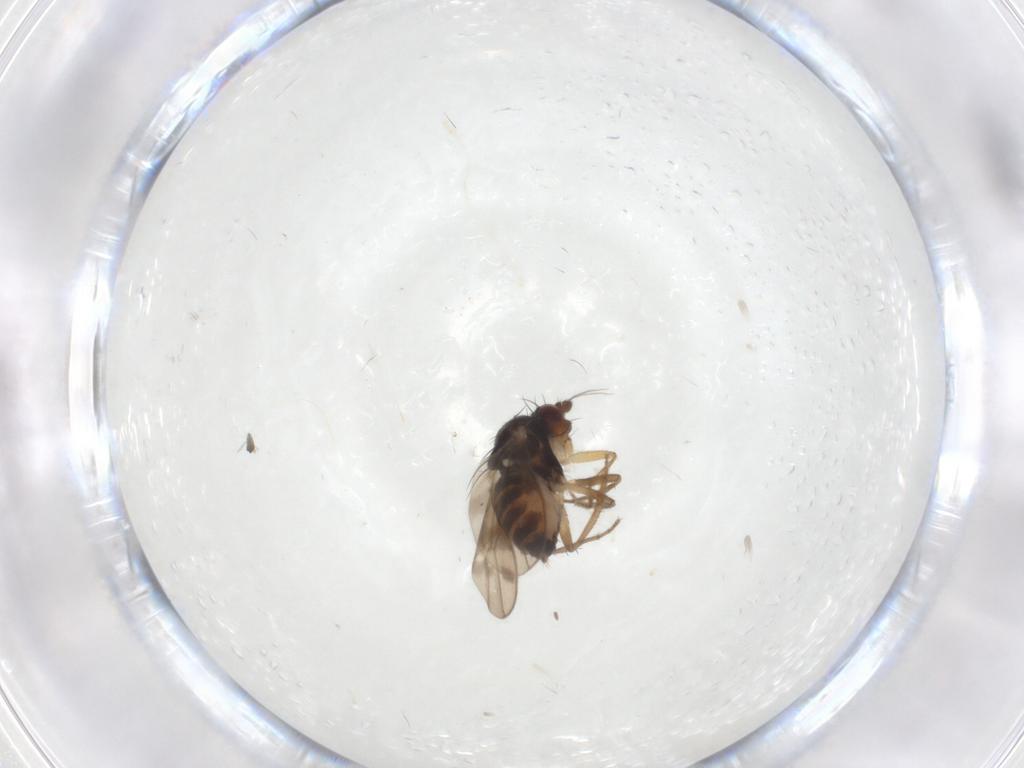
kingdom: Animalia
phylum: Arthropoda
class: Insecta
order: Diptera
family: Sphaeroceridae
